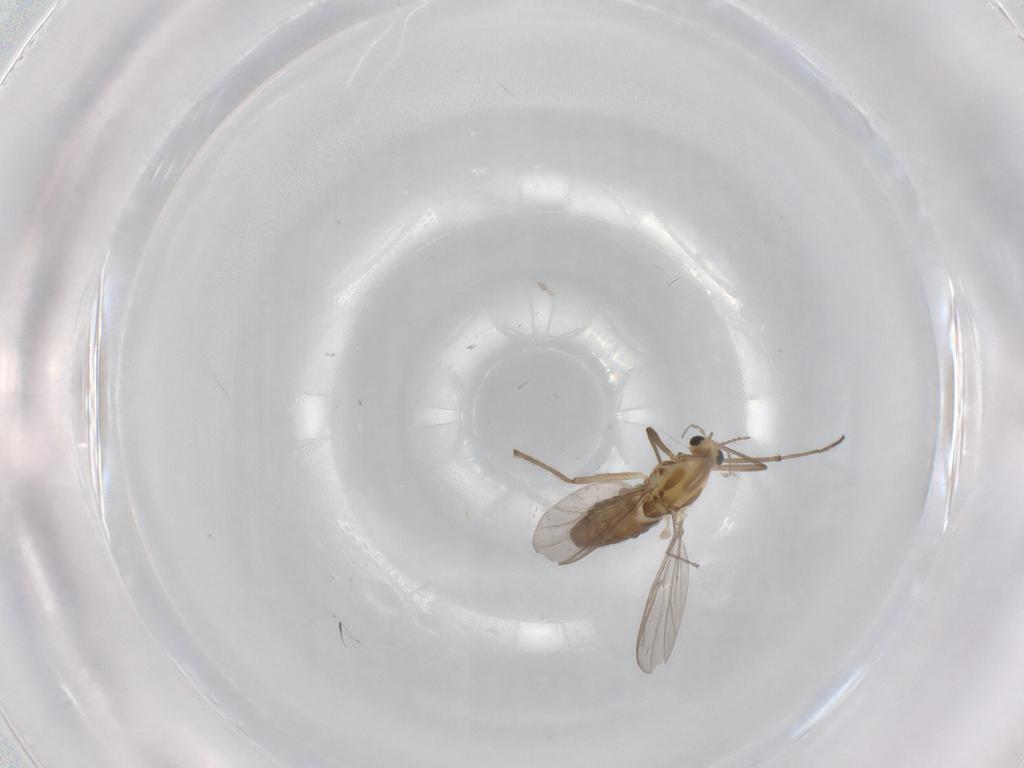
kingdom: Animalia
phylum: Arthropoda
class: Insecta
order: Diptera
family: Chironomidae
